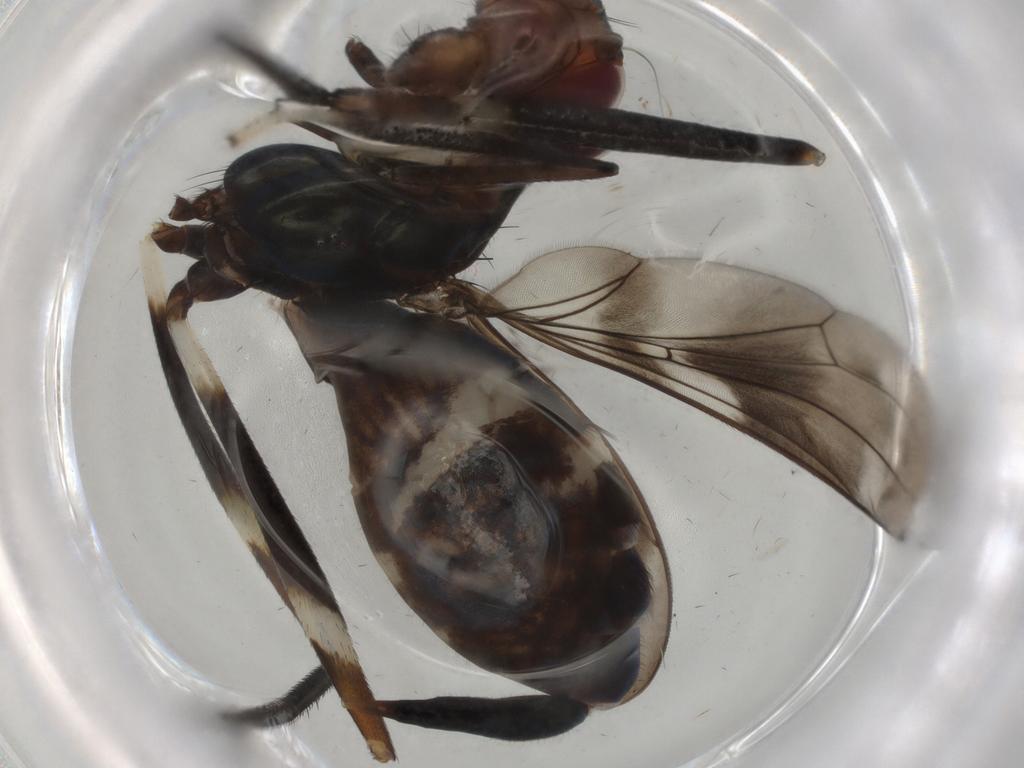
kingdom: Animalia
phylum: Arthropoda
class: Insecta
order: Diptera
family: Micropezidae
